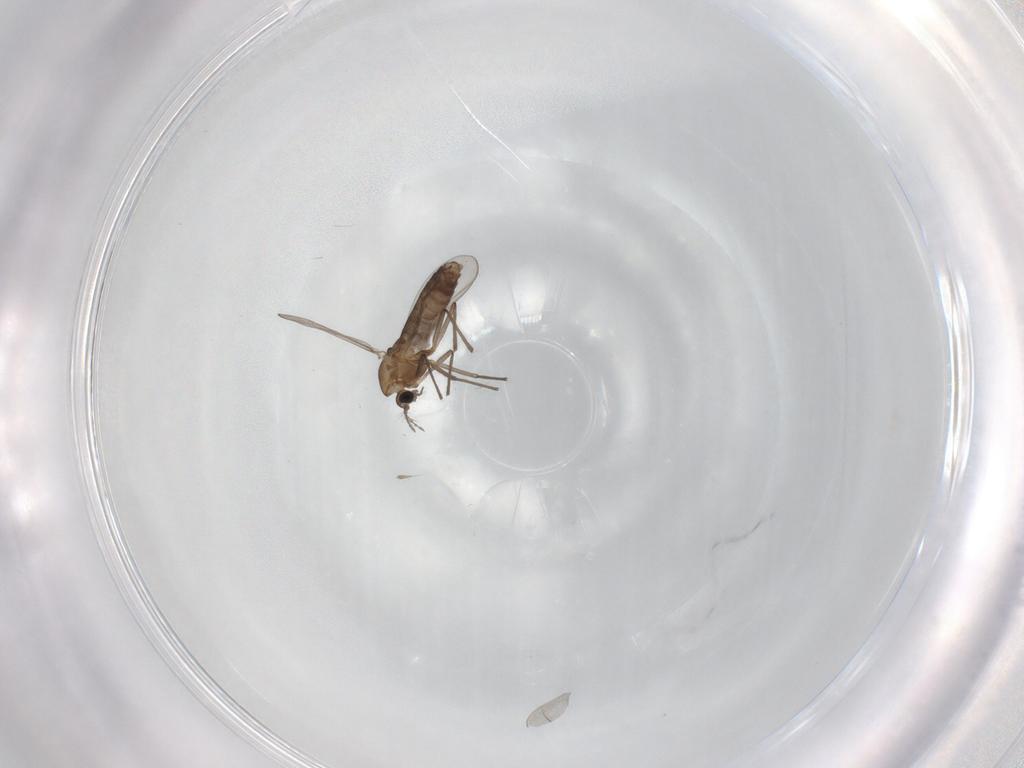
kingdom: Animalia
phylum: Arthropoda
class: Insecta
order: Diptera
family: Chironomidae
